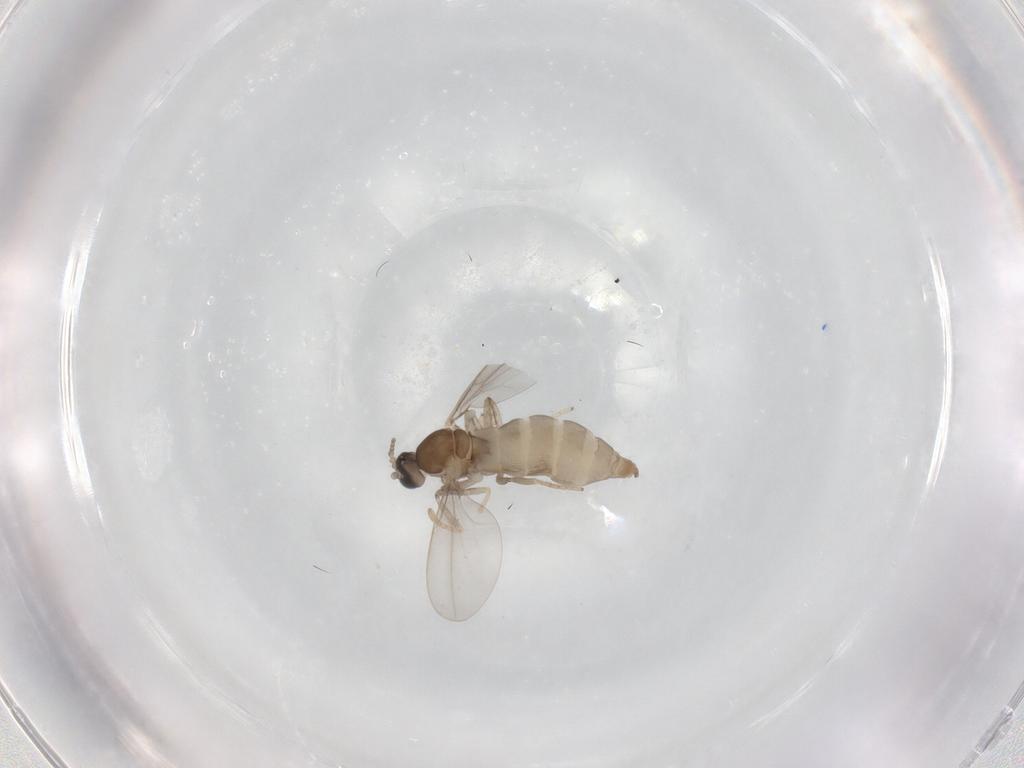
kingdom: Animalia
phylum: Arthropoda
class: Insecta
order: Diptera
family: Cecidomyiidae
